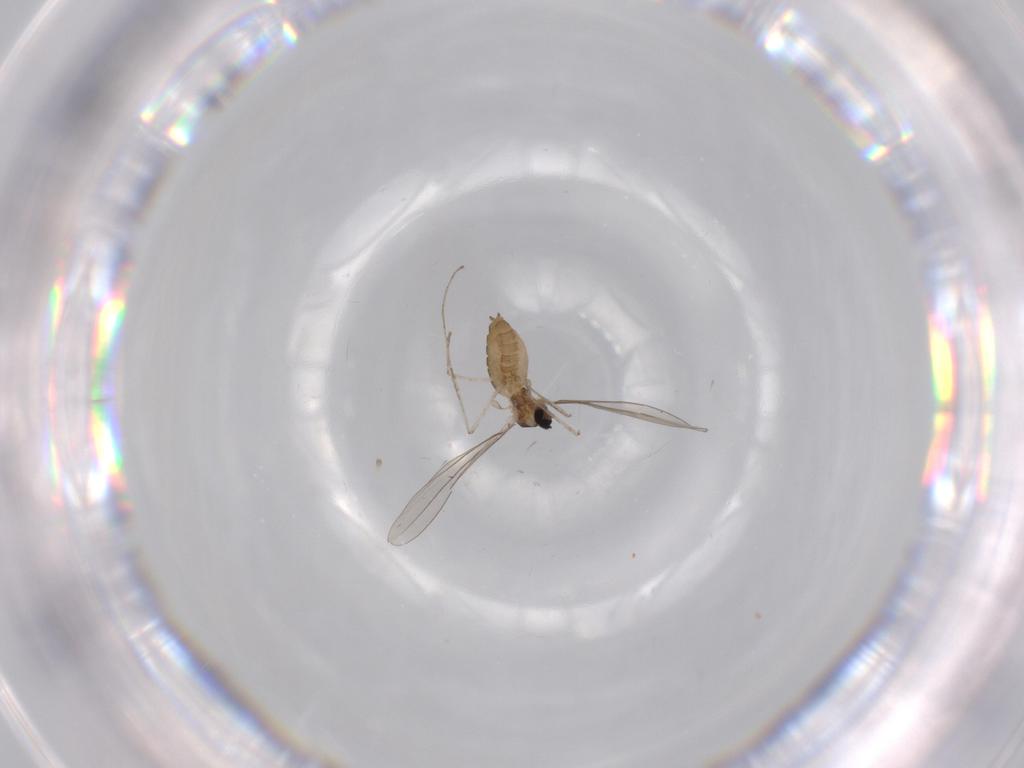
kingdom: Animalia
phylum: Arthropoda
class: Insecta
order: Diptera
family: Cecidomyiidae
